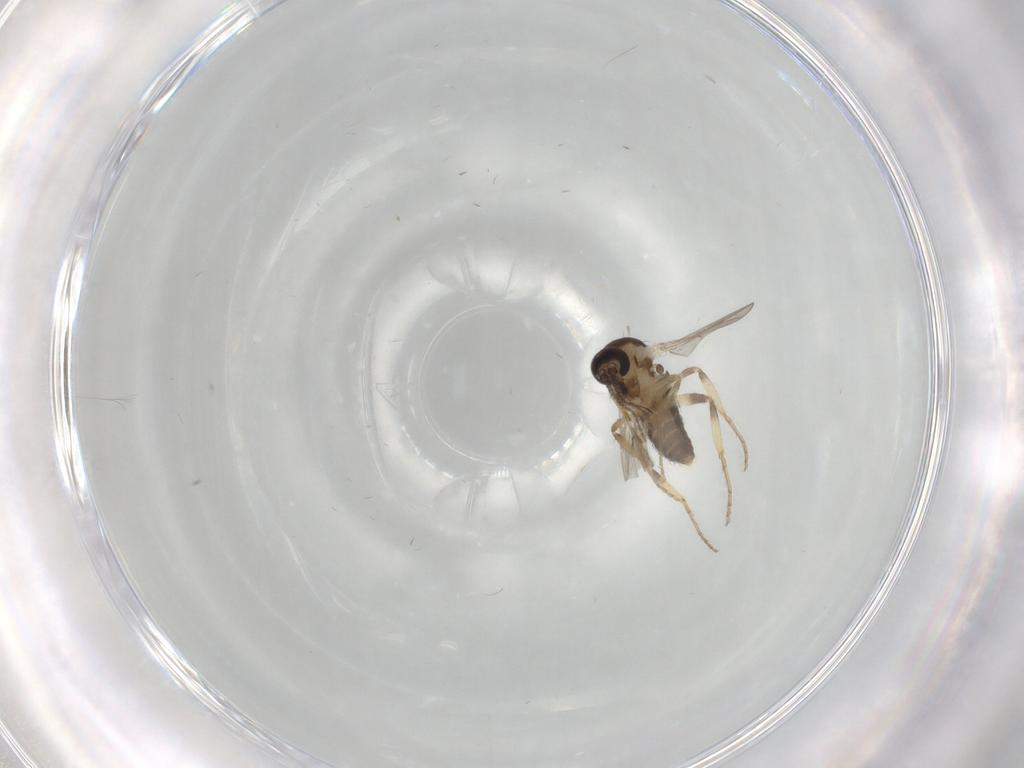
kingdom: Animalia
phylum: Arthropoda
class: Insecta
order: Diptera
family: Ceratopogonidae
